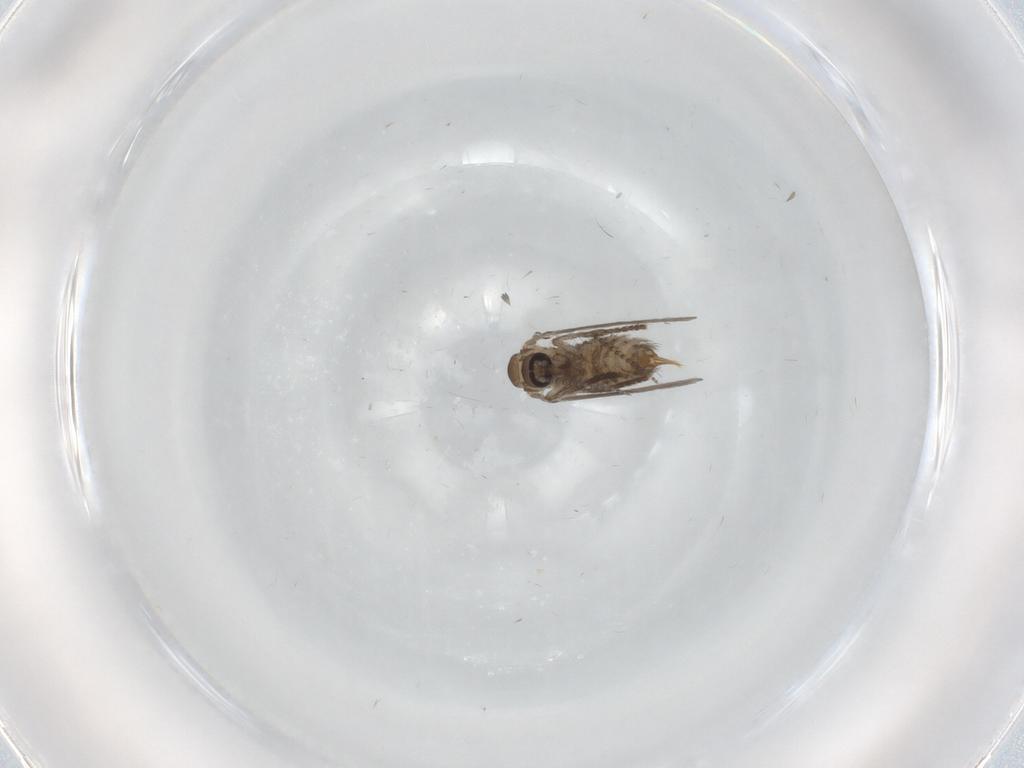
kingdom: Animalia
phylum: Arthropoda
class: Insecta
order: Diptera
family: Psychodidae
